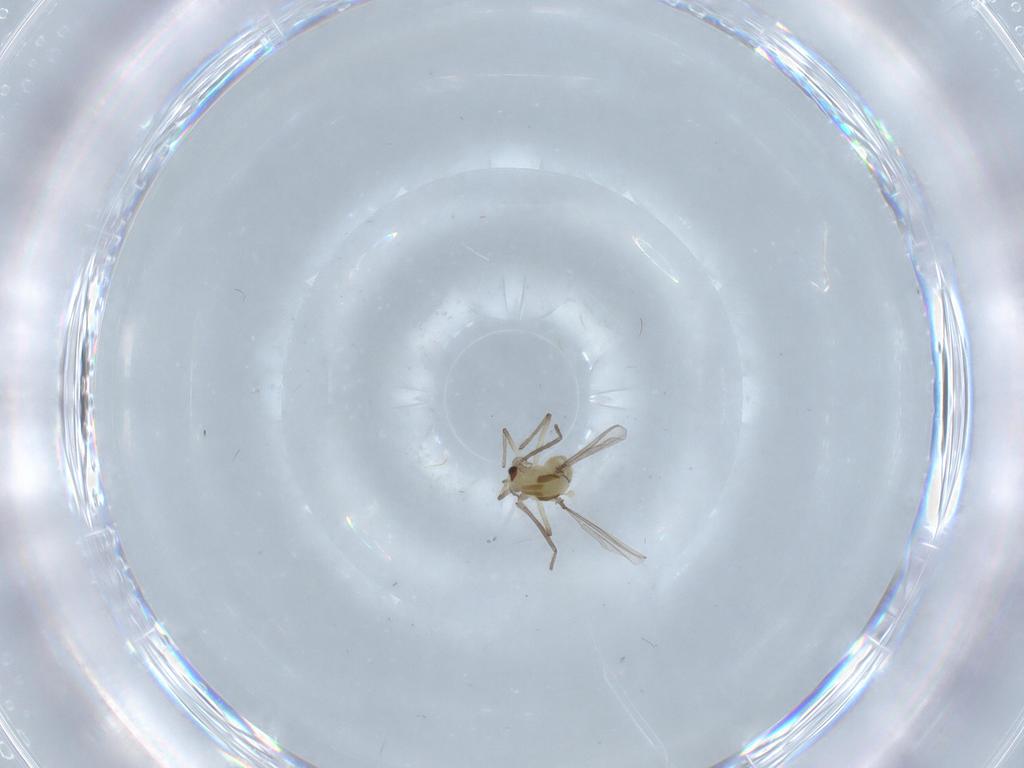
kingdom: Animalia
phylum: Arthropoda
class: Insecta
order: Diptera
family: Chironomidae
